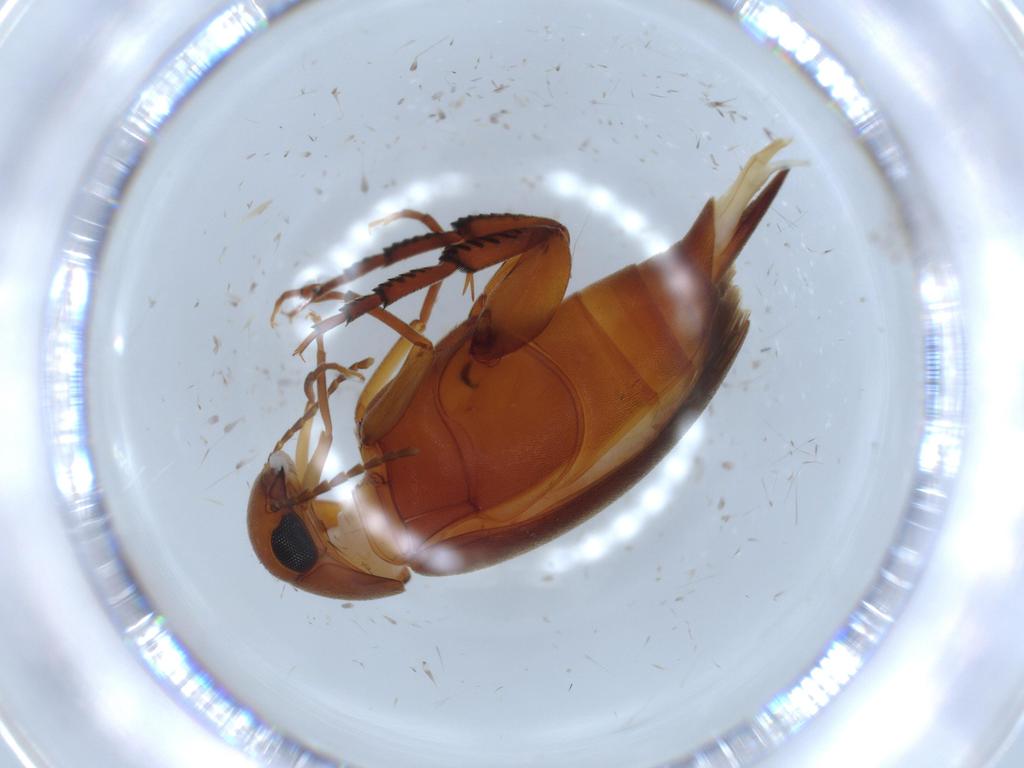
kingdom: Animalia
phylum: Arthropoda
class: Insecta
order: Coleoptera
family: Mordellidae
